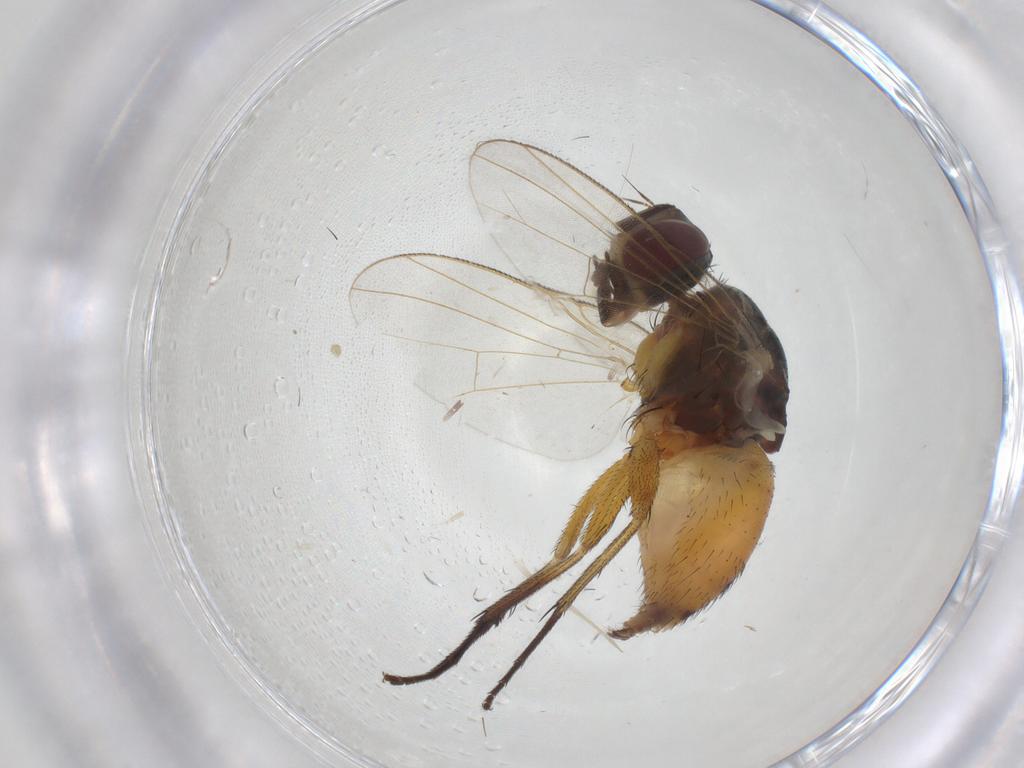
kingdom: Animalia
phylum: Arthropoda
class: Insecta
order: Diptera
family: Muscidae
